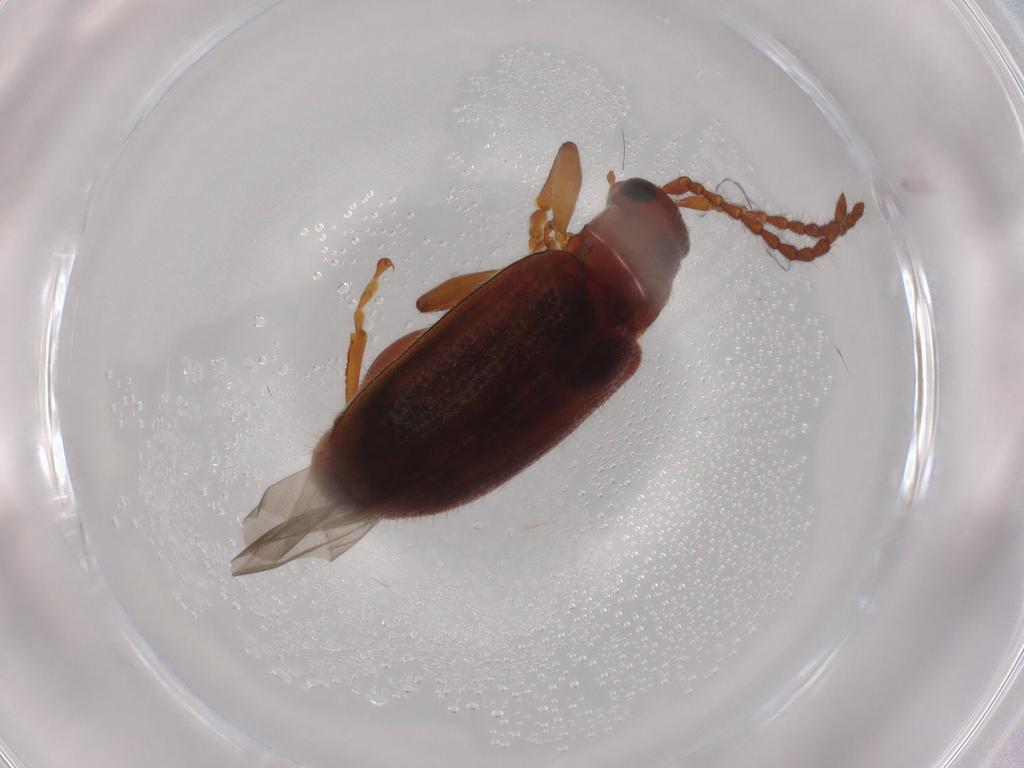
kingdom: Animalia
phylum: Arthropoda
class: Insecta
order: Coleoptera
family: Chrysomelidae
